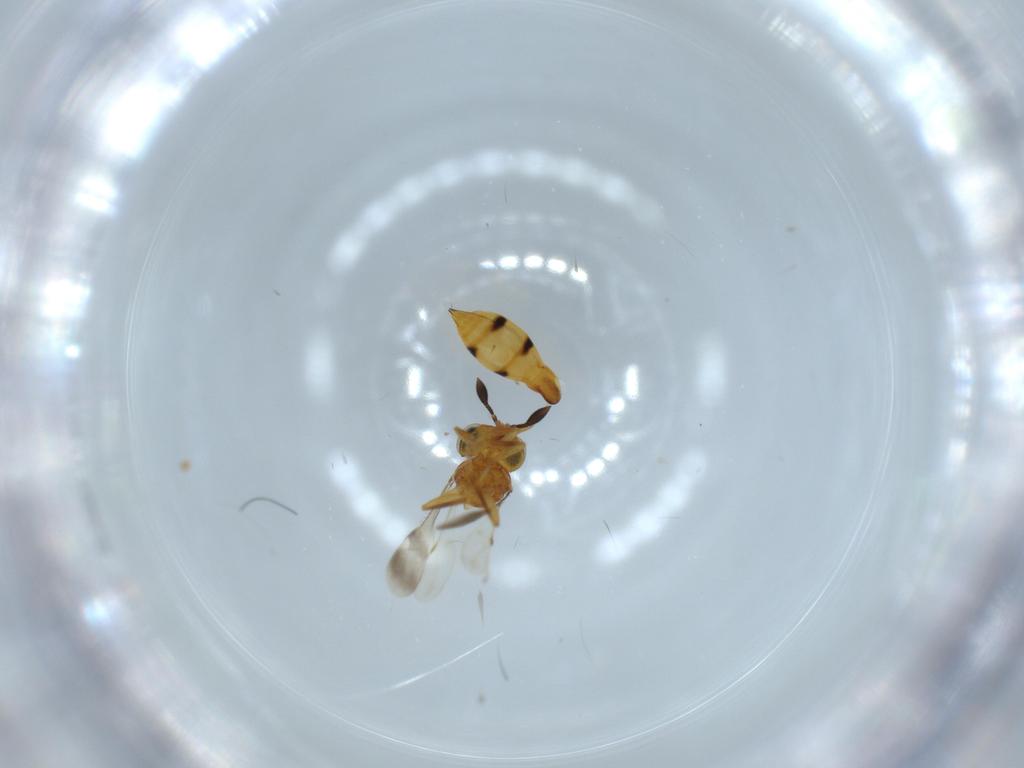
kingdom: Animalia
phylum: Arthropoda
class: Insecta
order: Hymenoptera
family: Scelionidae
